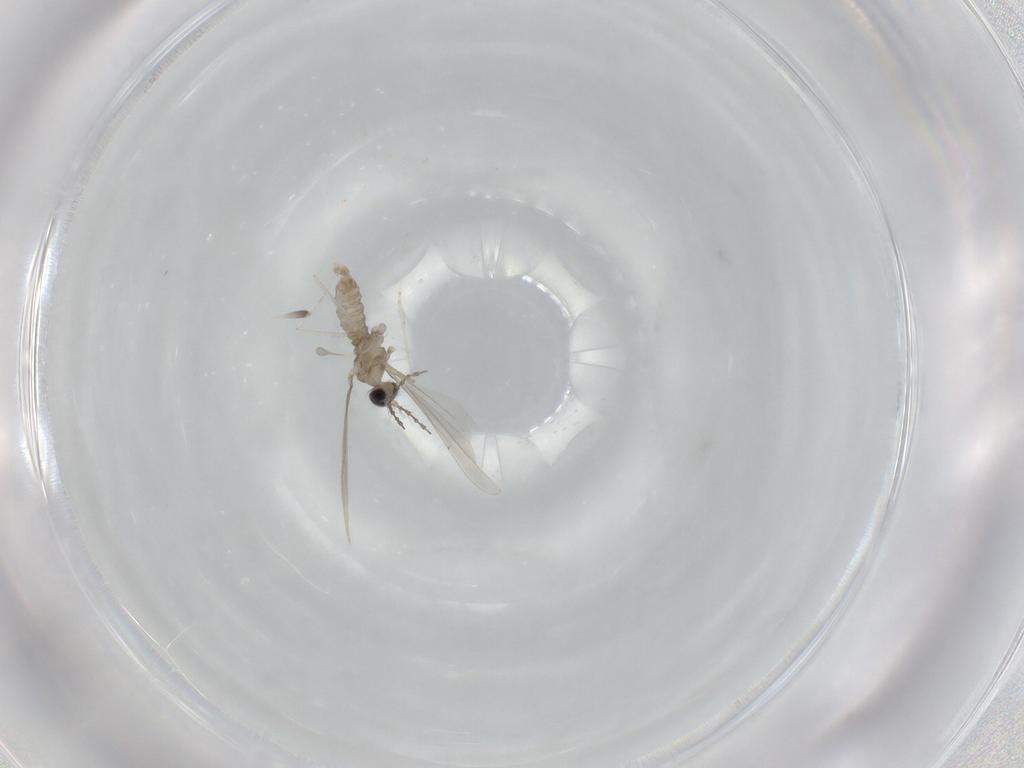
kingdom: Animalia
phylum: Arthropoda
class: Insecta
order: Diptera
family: Cecidomyiidae
